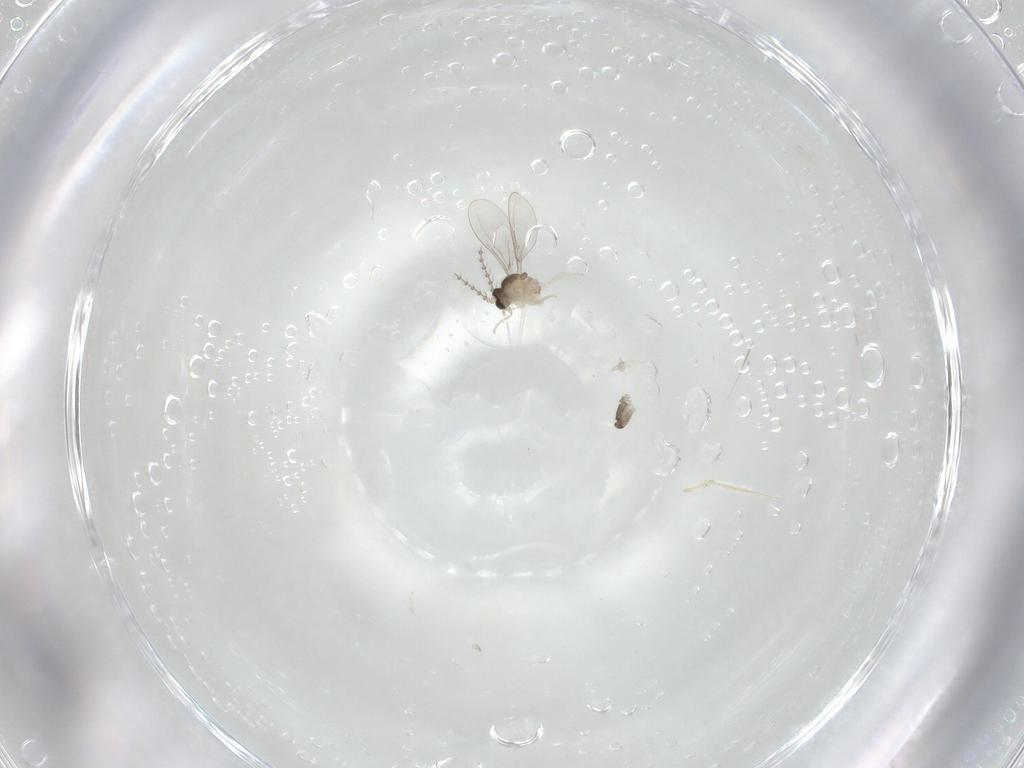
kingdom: Animalia
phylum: Arthropoda
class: Insecta
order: Diptera
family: Cecidomyiidae
